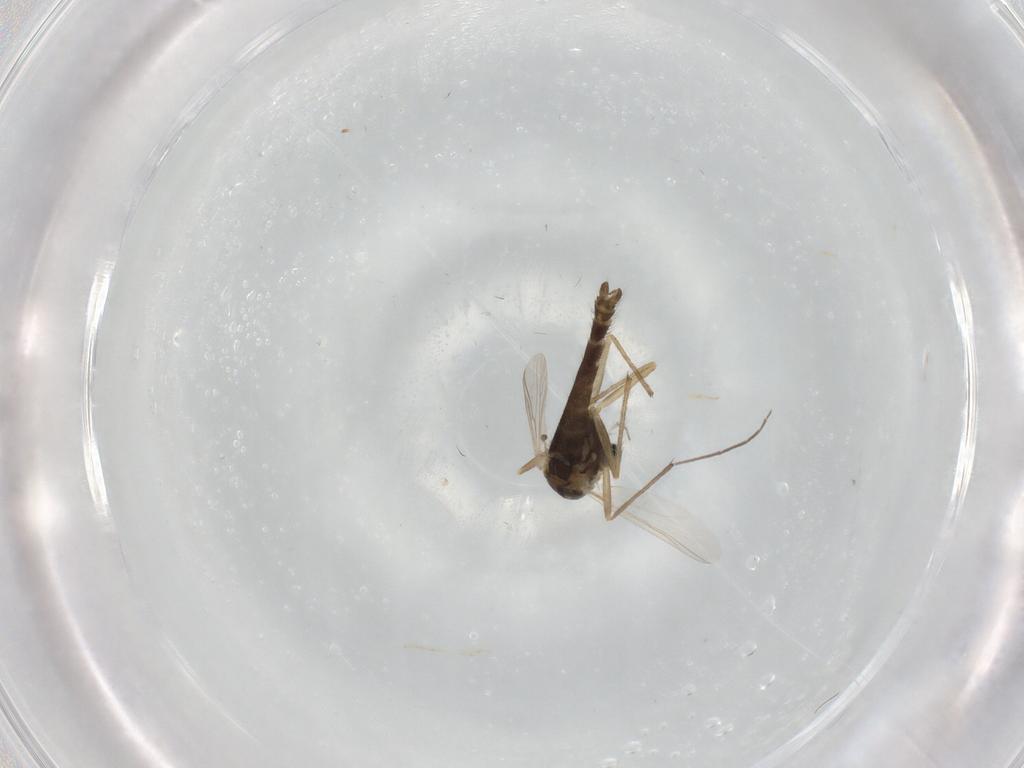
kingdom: Animalia
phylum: Arthropoda
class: Insecta
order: Diptera
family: Chironomidae
